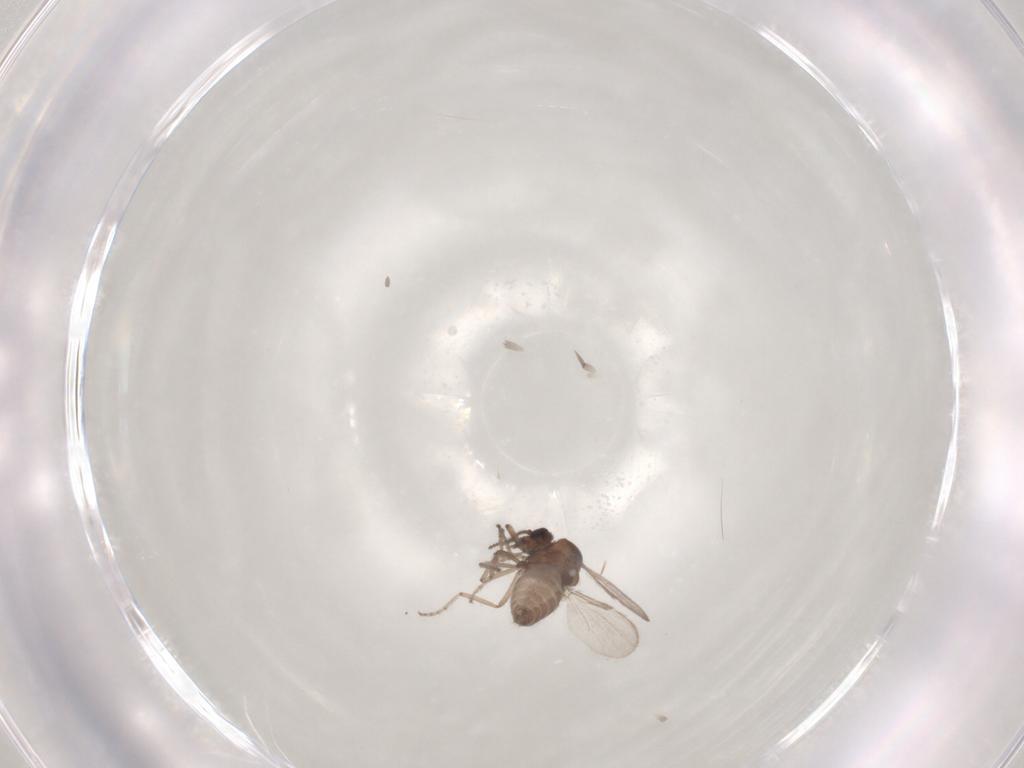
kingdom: Animalia
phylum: Arthropoda
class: Insecta
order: Diptera
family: Ceratopogonidae
